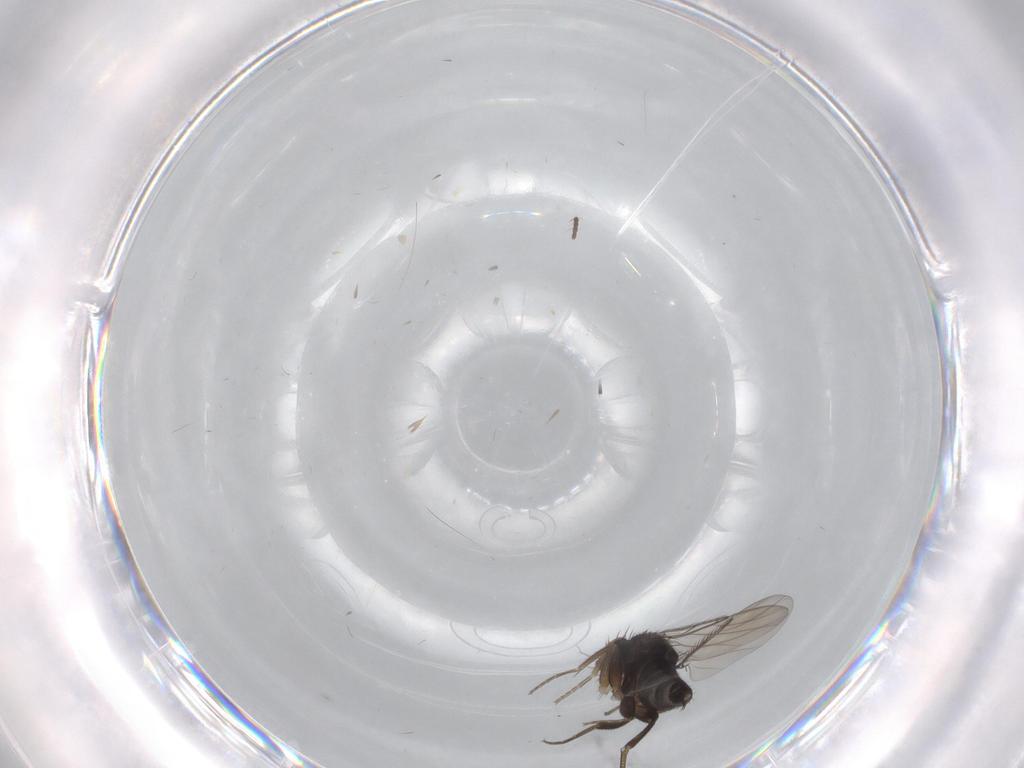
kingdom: Animalia
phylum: Arthropoda
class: Insecta
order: Diptera
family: Phoridae
